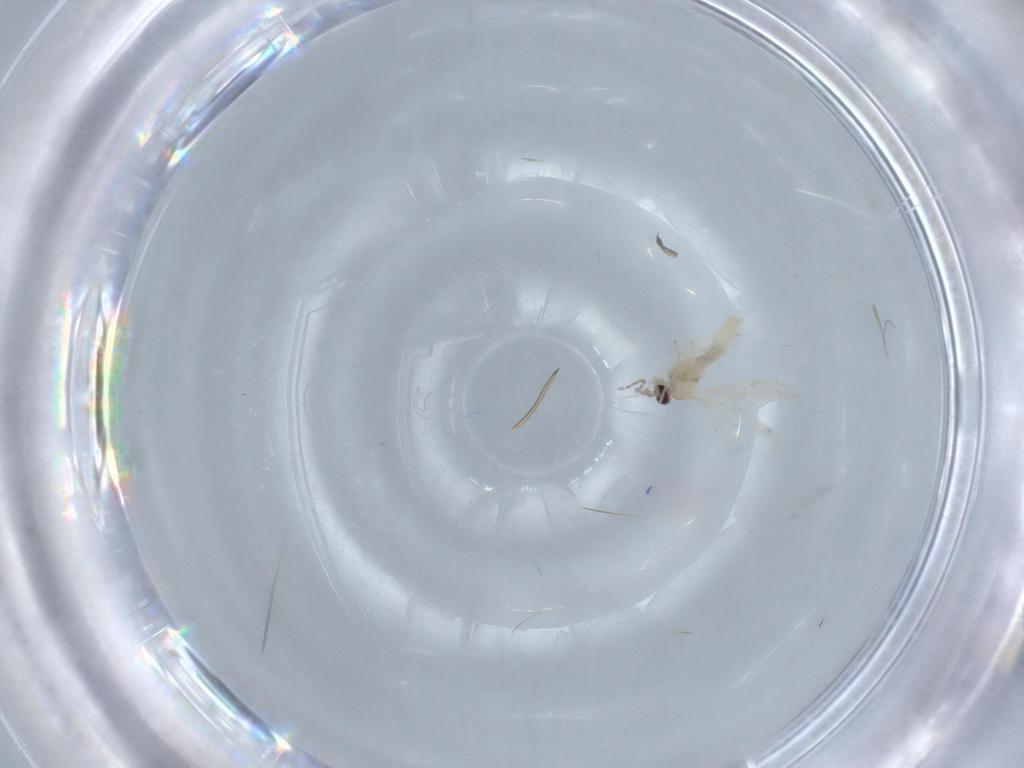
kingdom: Animalia
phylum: Arthropoda
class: Insecta
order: Diptera
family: Cecidomyiidae
